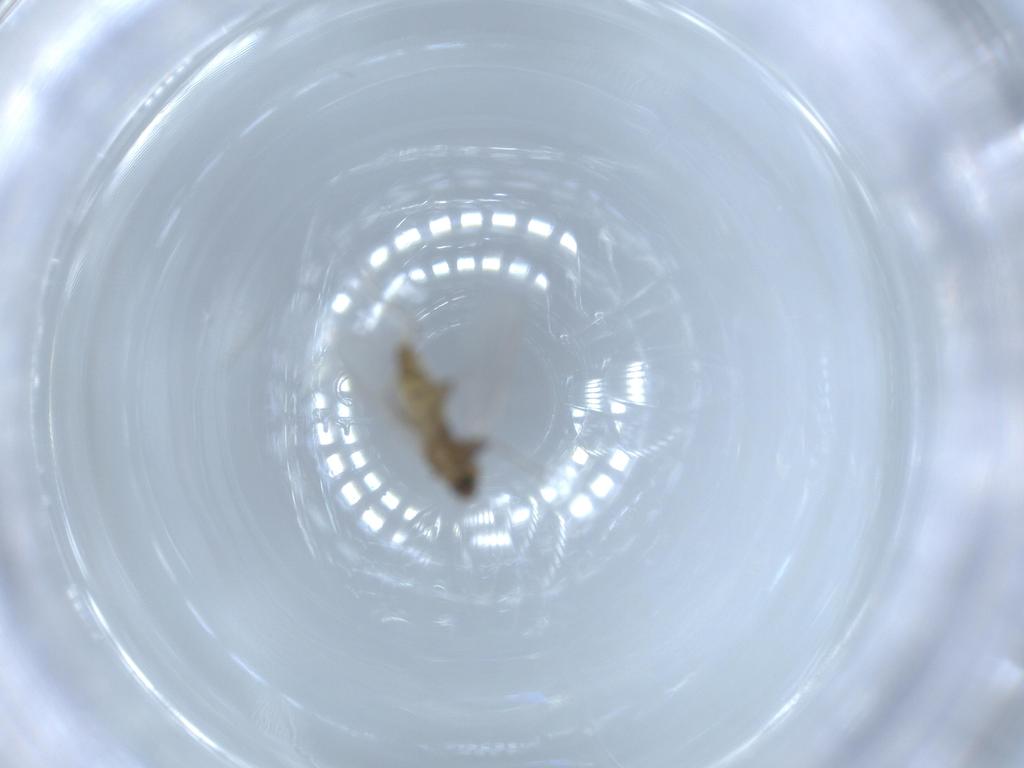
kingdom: Animalia
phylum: Arthropoda
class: Insecta
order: Diptera
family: Chironomidae
